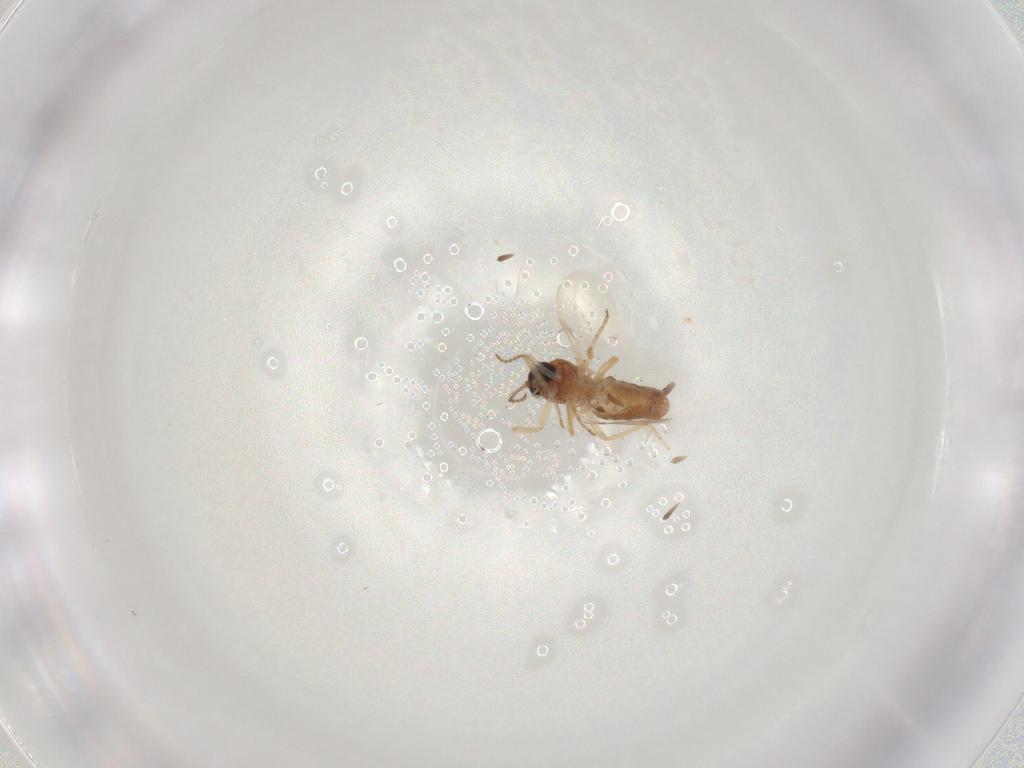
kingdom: Animalia
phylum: Arthropoda
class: Insecta
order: Diptera
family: Ceratopogonidae
